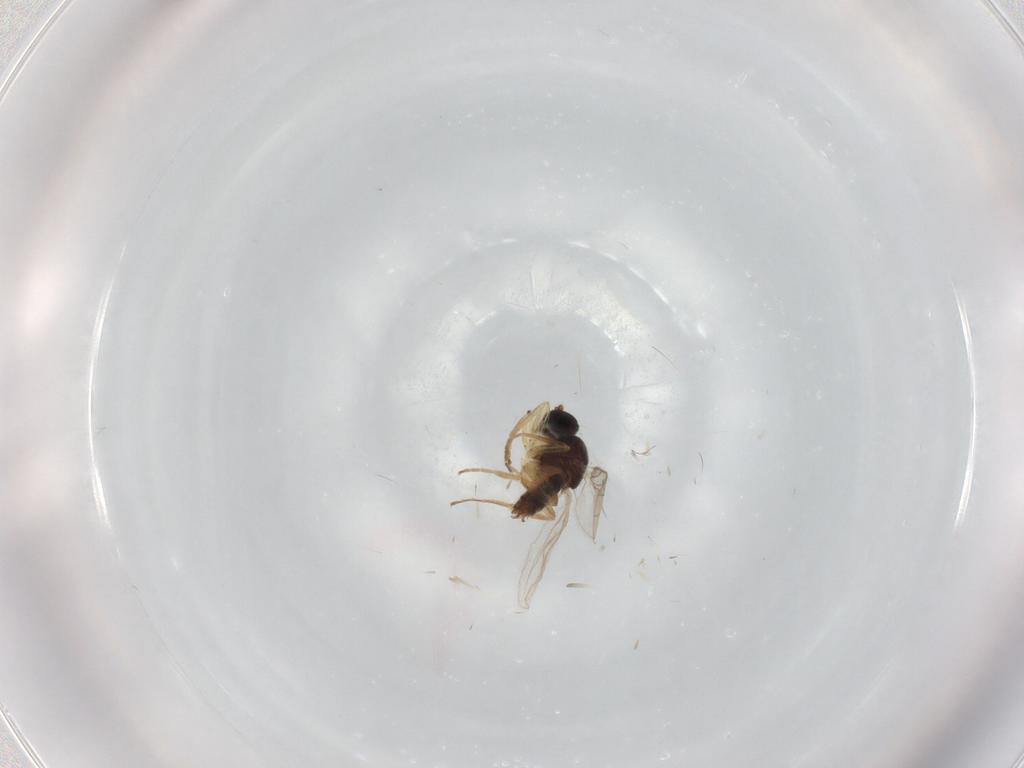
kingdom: Animalia
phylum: Arthropoda
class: Insecta
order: Diptera
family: Hybotidae
